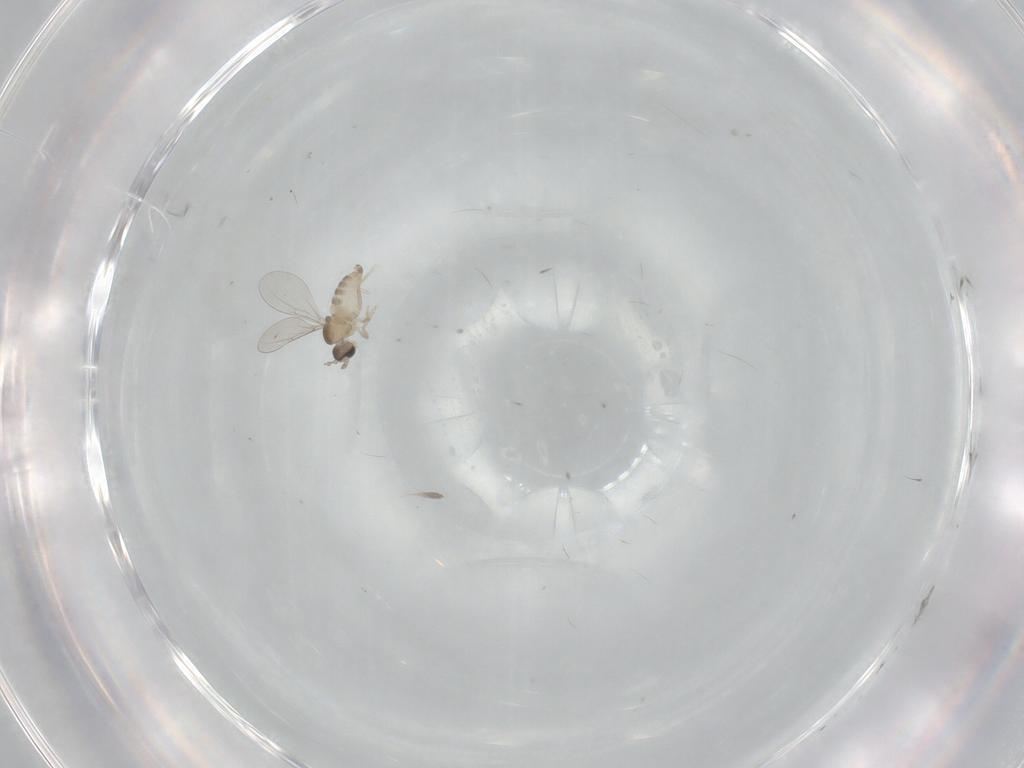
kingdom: Animalia
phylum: Arthropoda
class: Insecta
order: Diptera
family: Cecidomyiidae
